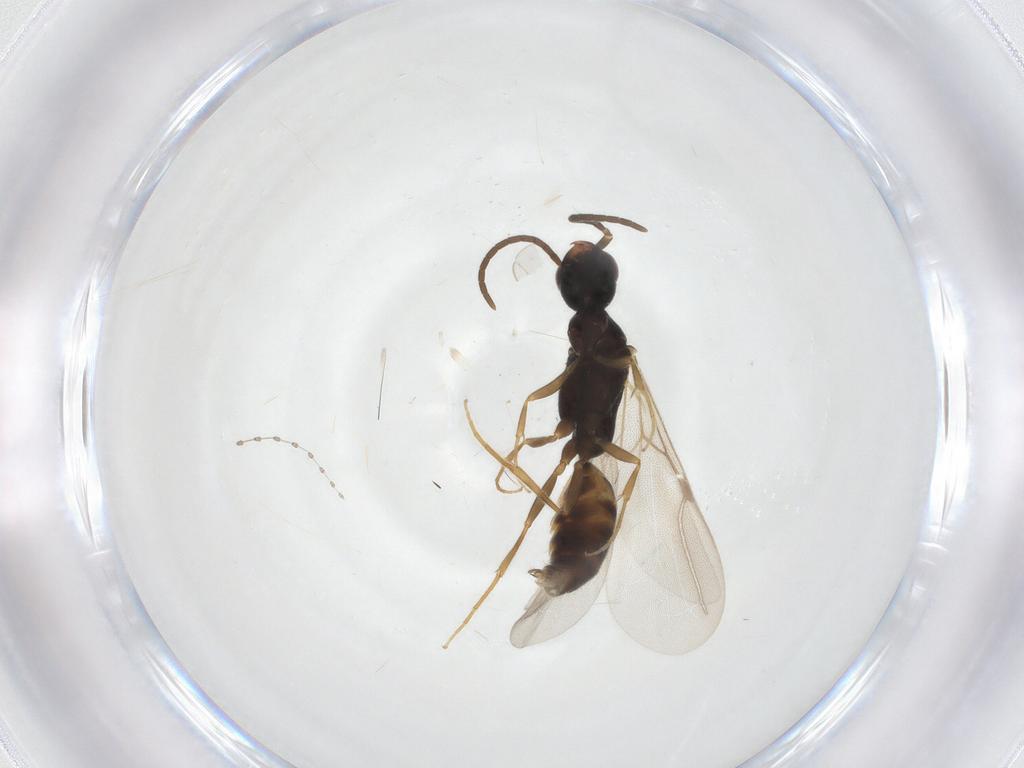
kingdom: Animalia
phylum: Arthropoda
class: Insecta
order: Hymenoptera
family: Bethylidae
